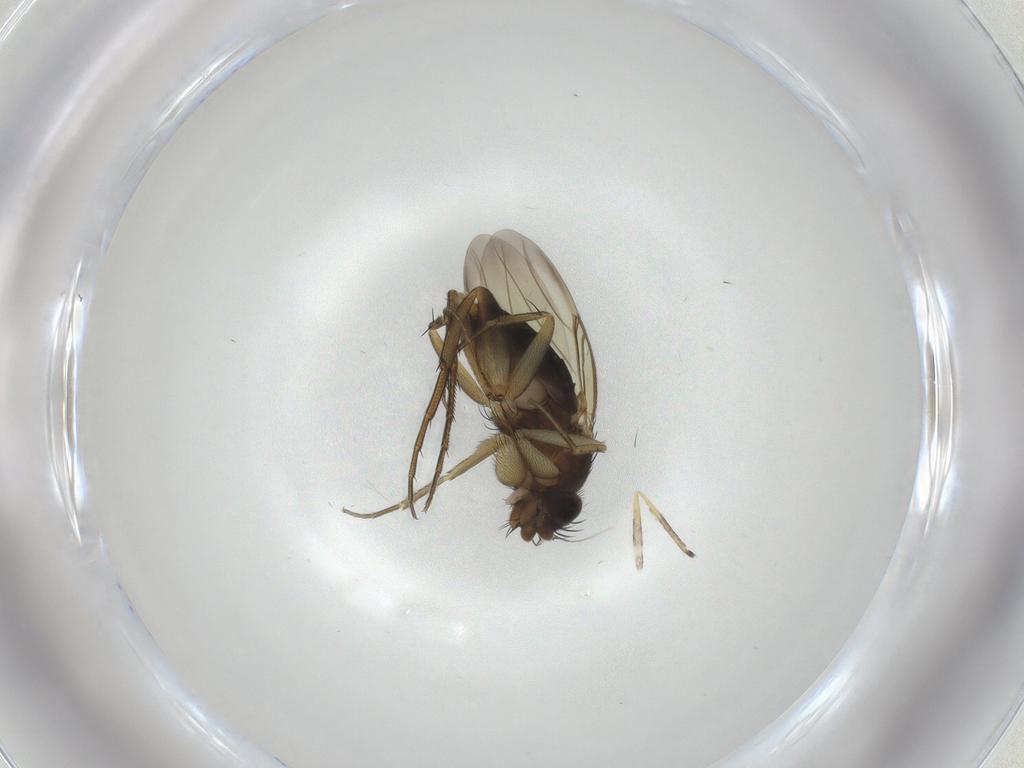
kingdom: Animalia
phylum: Arthropoda
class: Insecta
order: Diptera
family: Phoridae
